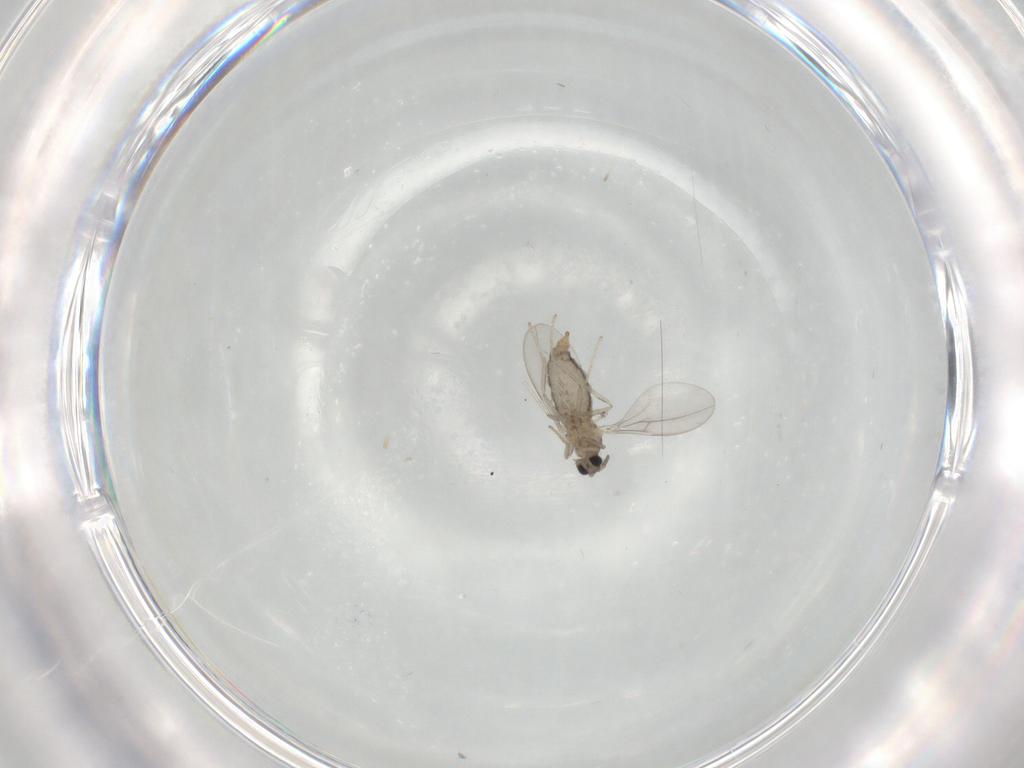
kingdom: Animalia
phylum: Arthropoda
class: Insecta
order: Diptera
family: Cecidomyiidae
